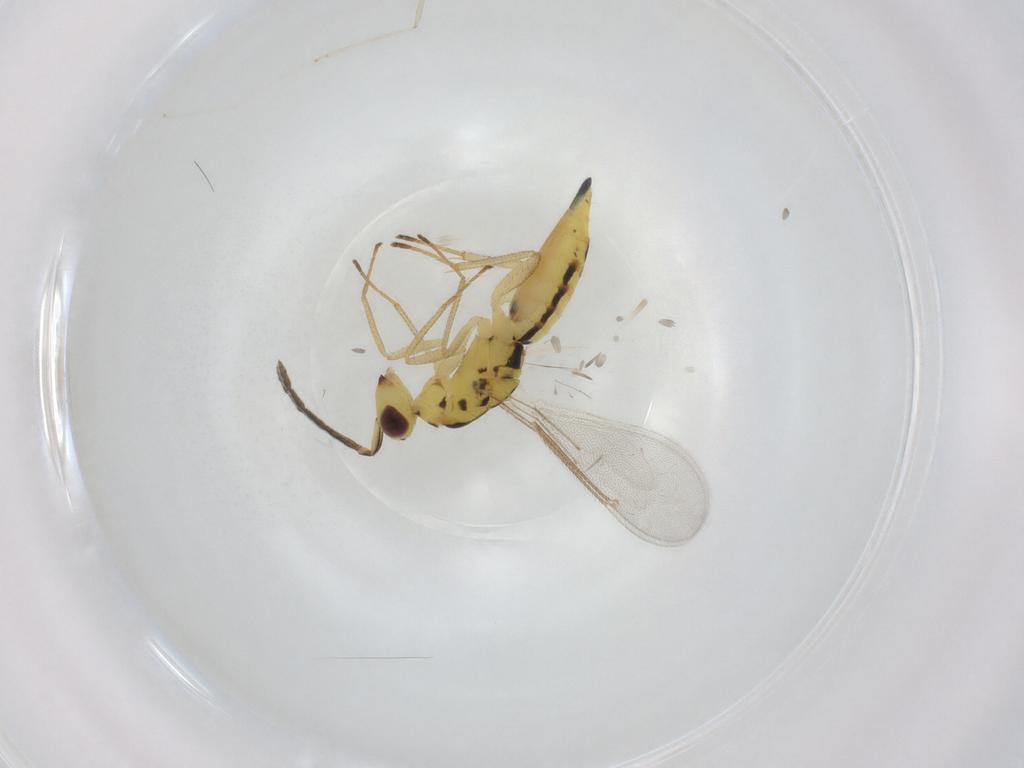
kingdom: Animalia
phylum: Arthropoda
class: Insecta
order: Hymenoptera
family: Eulophidae
